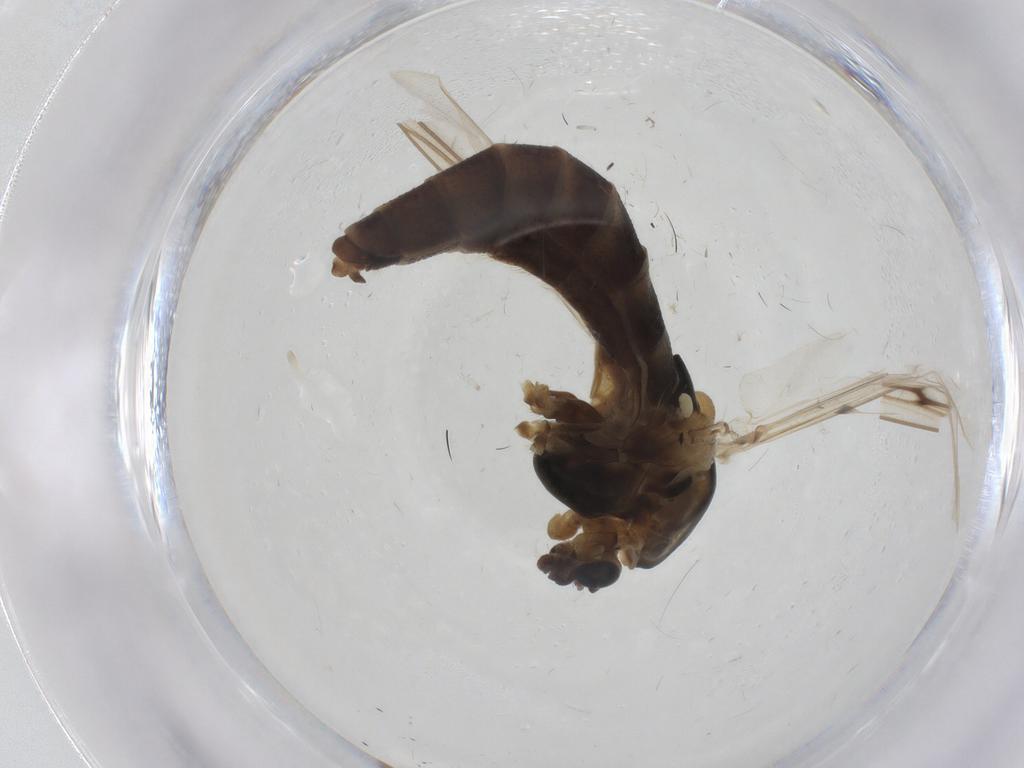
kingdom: Animalia
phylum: Arthropoda
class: Insecta
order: Diptera
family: Chironomidae
